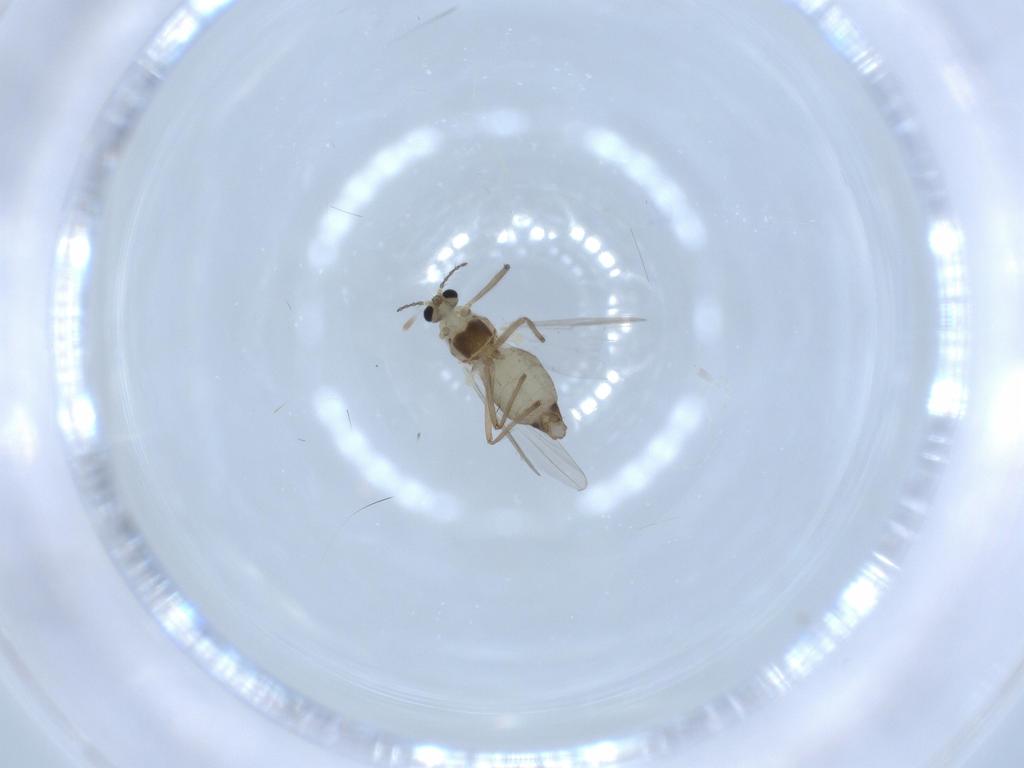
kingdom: Animalia
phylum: Arthropoda
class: Insecta
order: Diptera
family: Chironomidae
